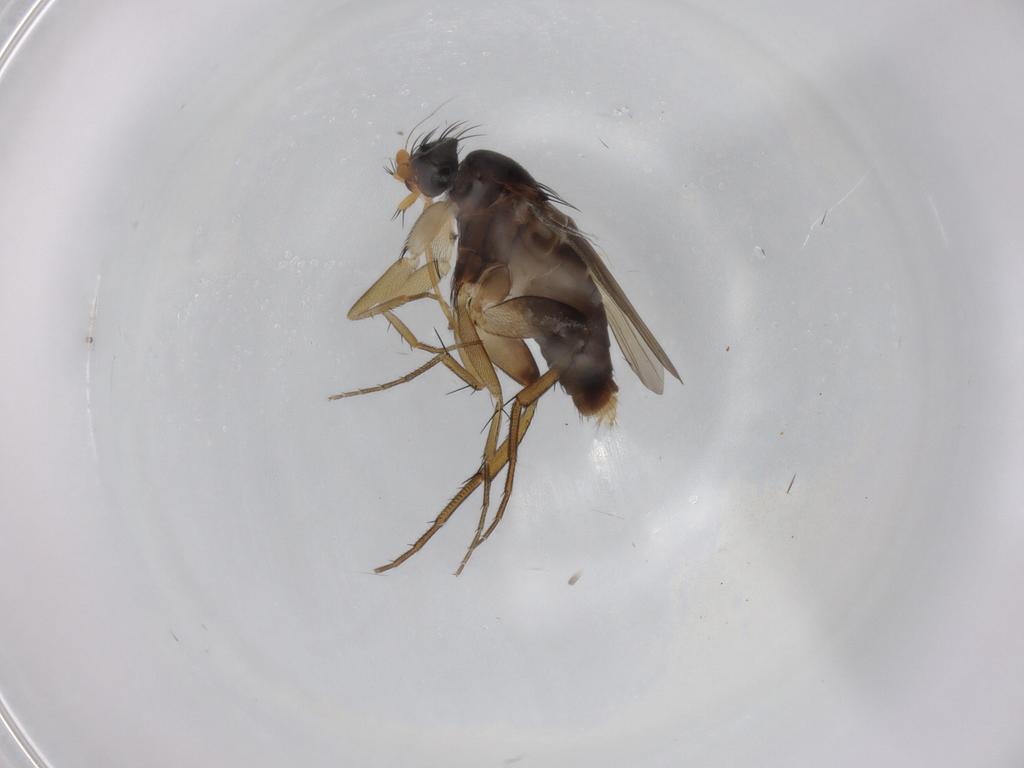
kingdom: Animalia
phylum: Arthropoda
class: Insecta
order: Diptera
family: Phoridae
